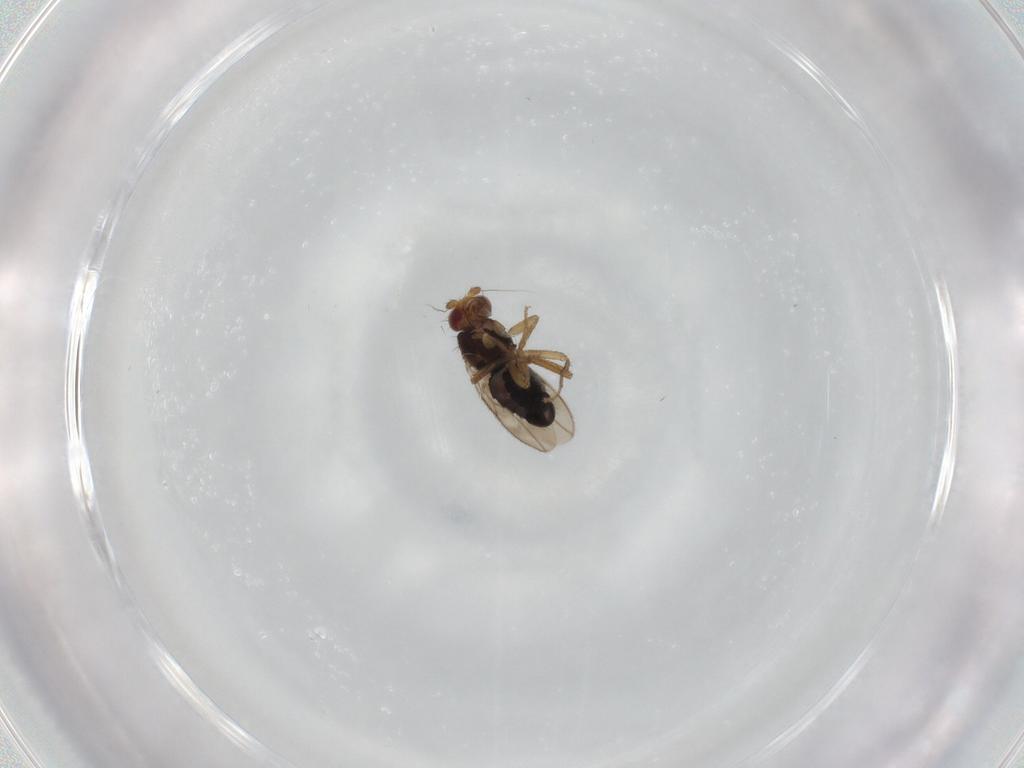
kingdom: Animalia
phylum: Arthropoda
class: Insecta
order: Diptera
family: Sphaeroceridae
